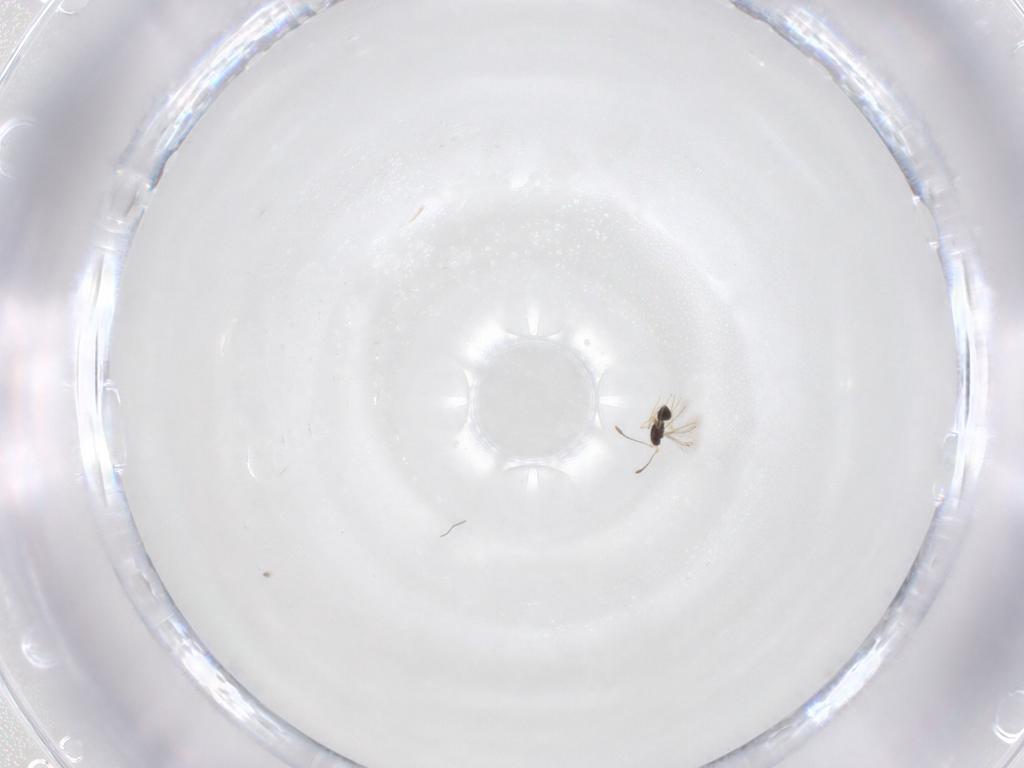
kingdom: Animalia
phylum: Arthropoda
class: Insecta
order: Hymenoptera
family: Mymaridae
